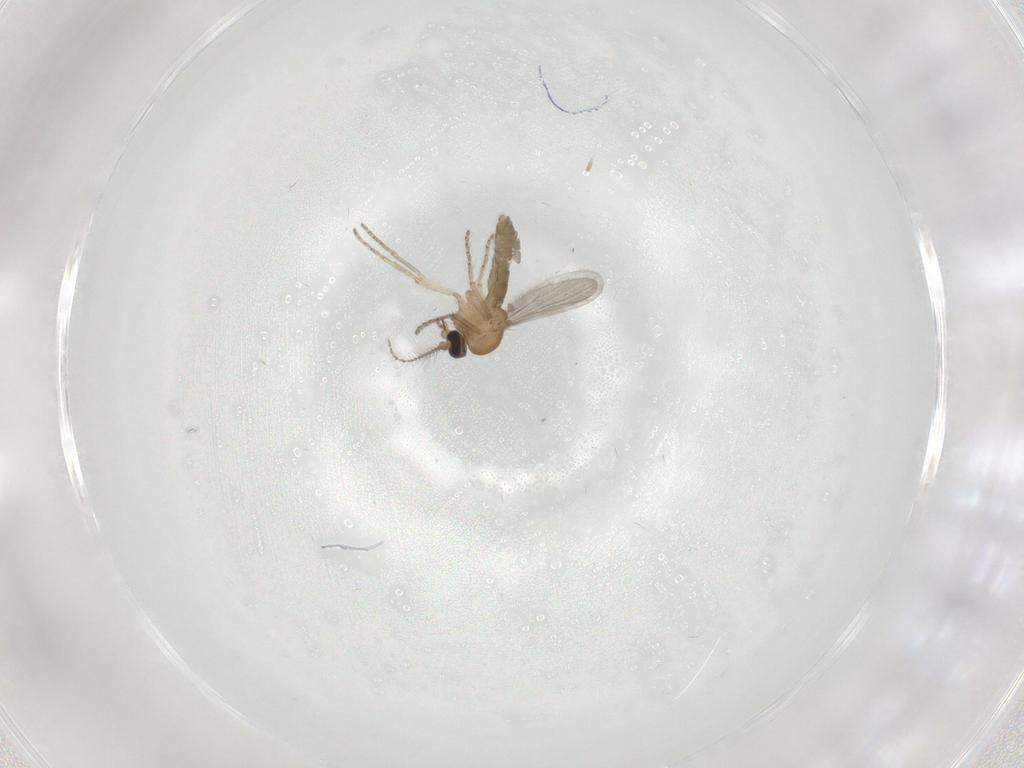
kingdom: Animalia
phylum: Arthropoda
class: Insecta
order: Diptera
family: Ceratopogonidae
